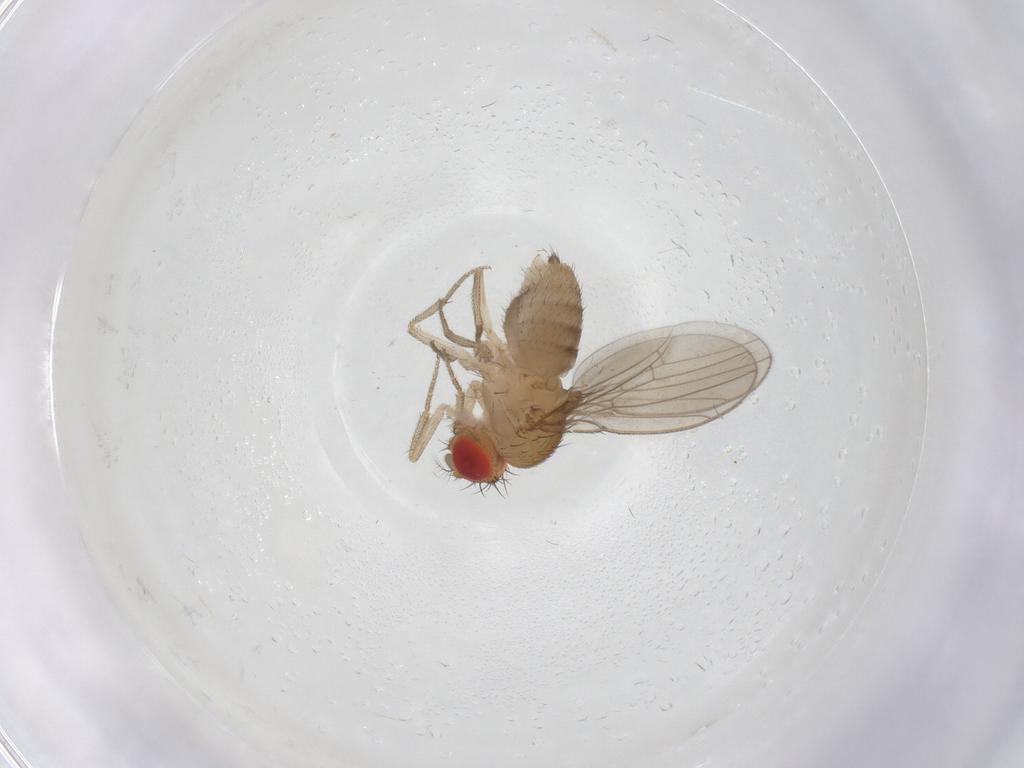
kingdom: Animalia
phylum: Arthropoda
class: Insecta
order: Diptera
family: Drosophilidae
